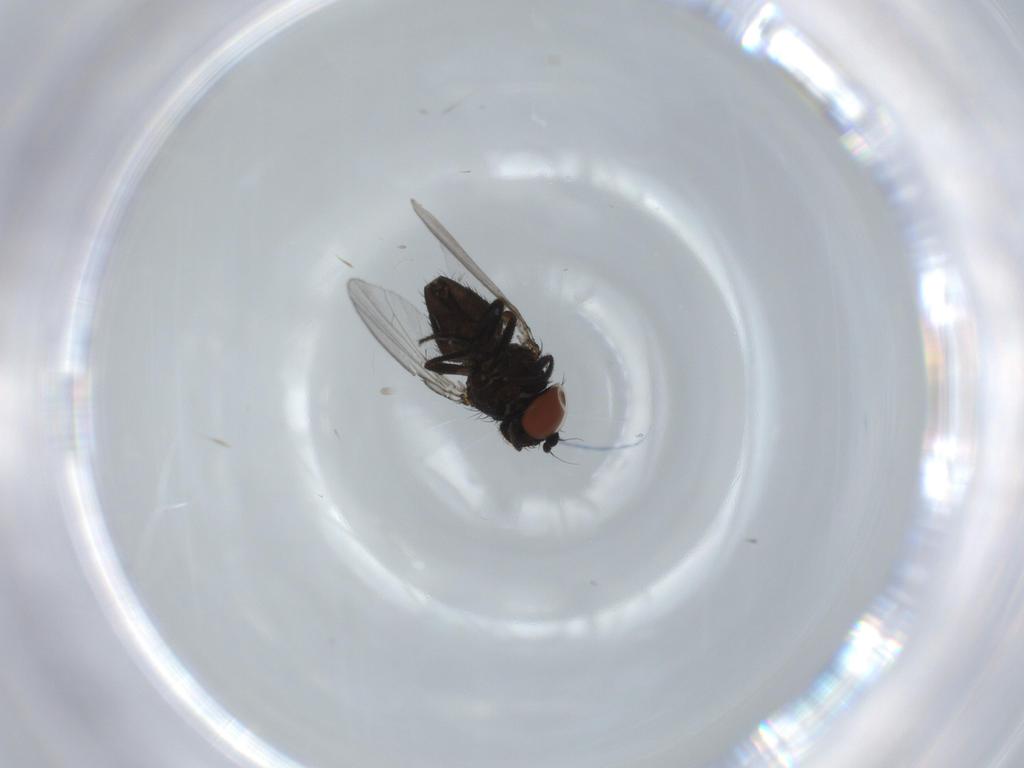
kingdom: Animalia
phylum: Arthropoda
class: Insecta
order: Diptera
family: Milichiidae
